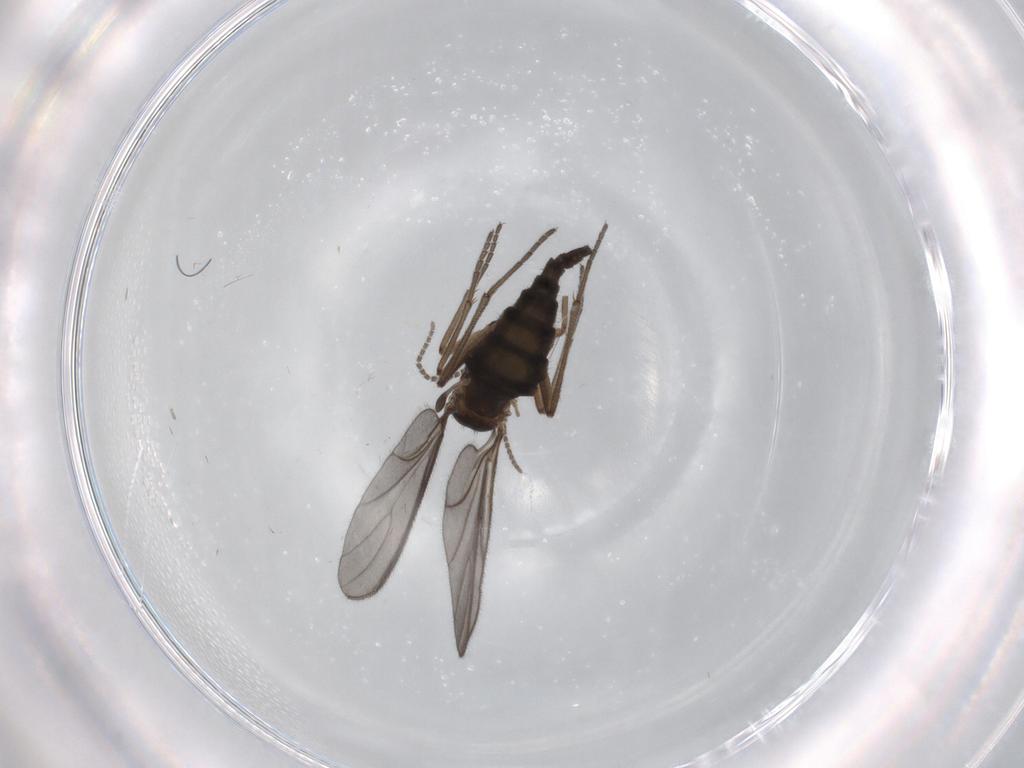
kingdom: Animalia
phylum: Arthropoda
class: Insecta
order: Diptera
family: Sciaridae
